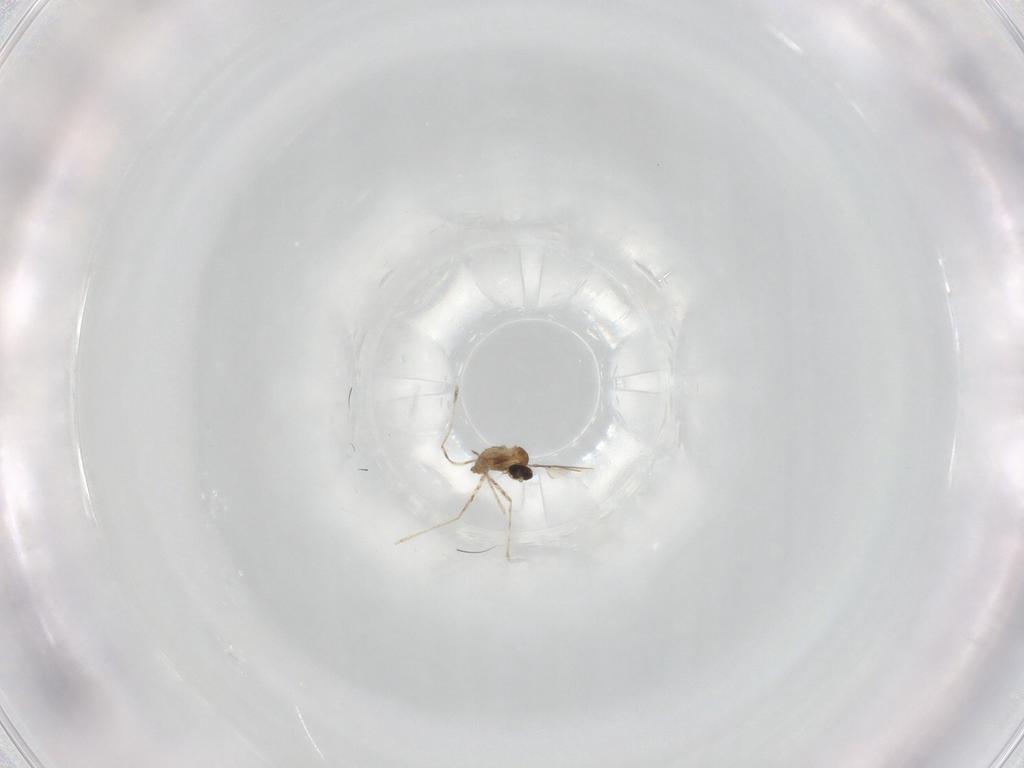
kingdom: Animalia
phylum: Arthropoda
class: Insecta
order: Diptera
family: Cecidomyiidae
